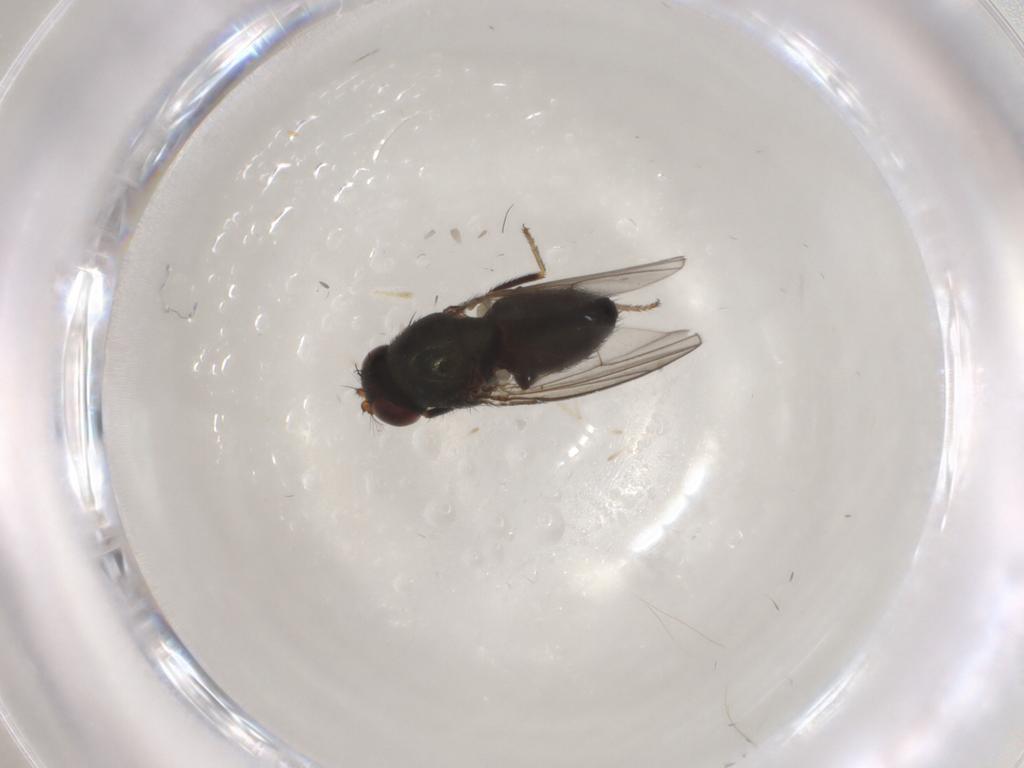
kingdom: Animalia
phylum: Arthropoda
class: Insecta
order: Diptera
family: Ephydridae
